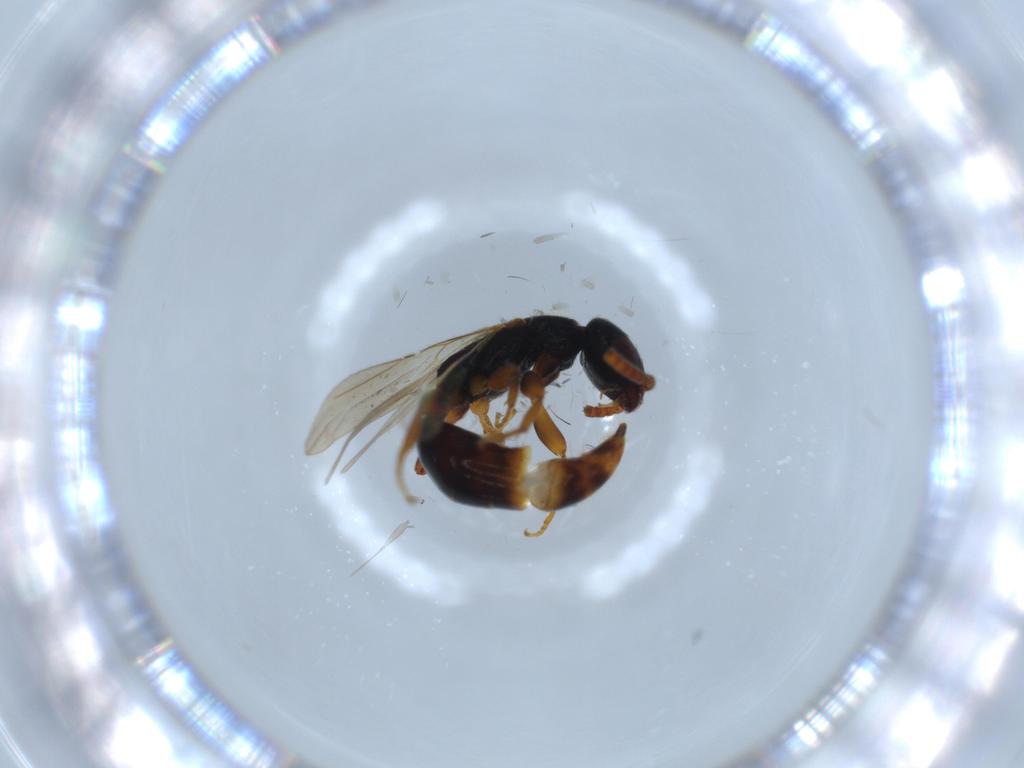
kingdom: Animalia
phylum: Arthropoda
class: Insecta
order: Hymenoptera
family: Bethylidae
